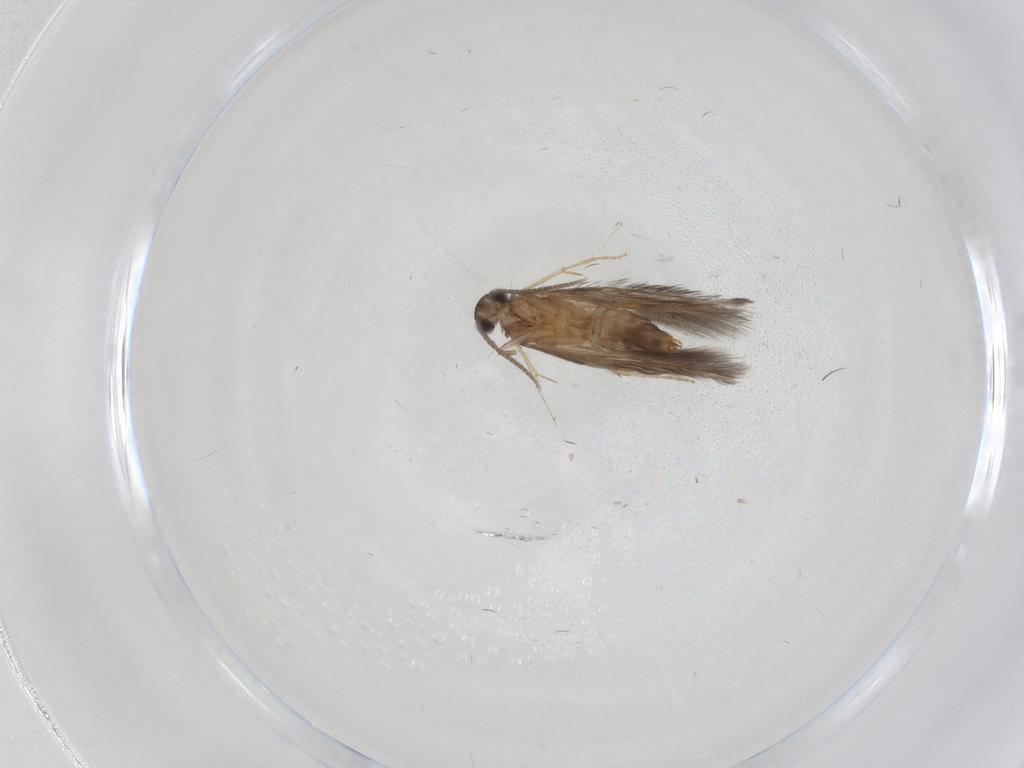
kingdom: Animalia
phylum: Arthropoda
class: Insecta
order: Trichoptera
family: Hydroptilidae
